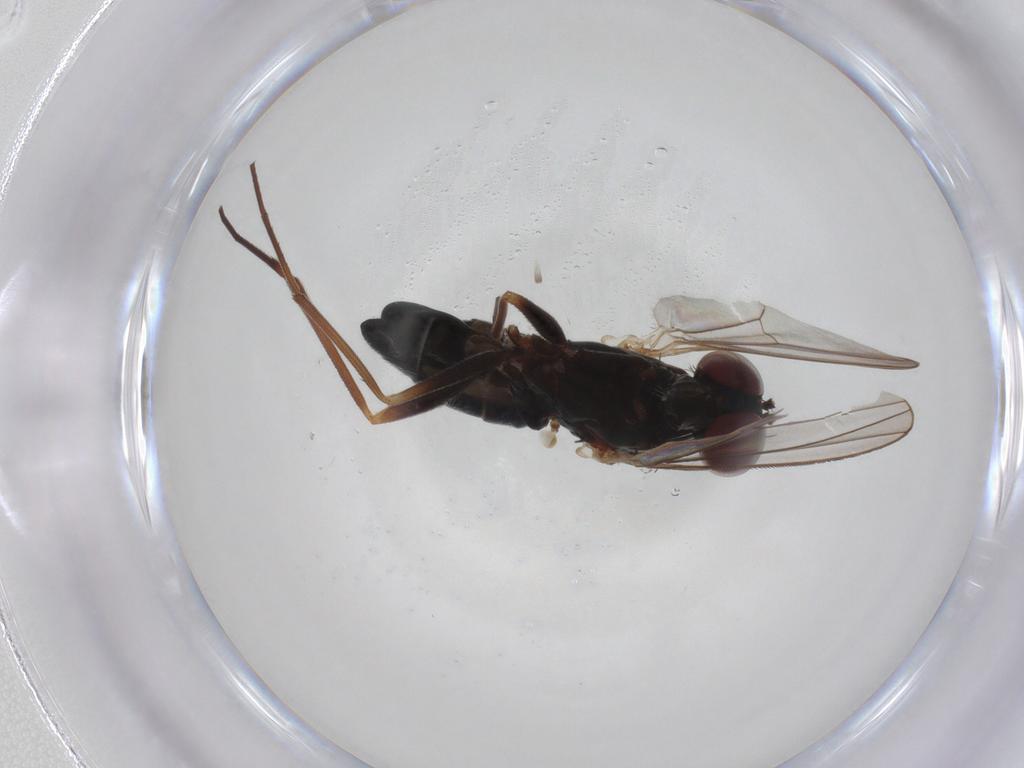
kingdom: Animalia
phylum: Arthropoda
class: Insecta
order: Diptera
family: Dolichopodidae
